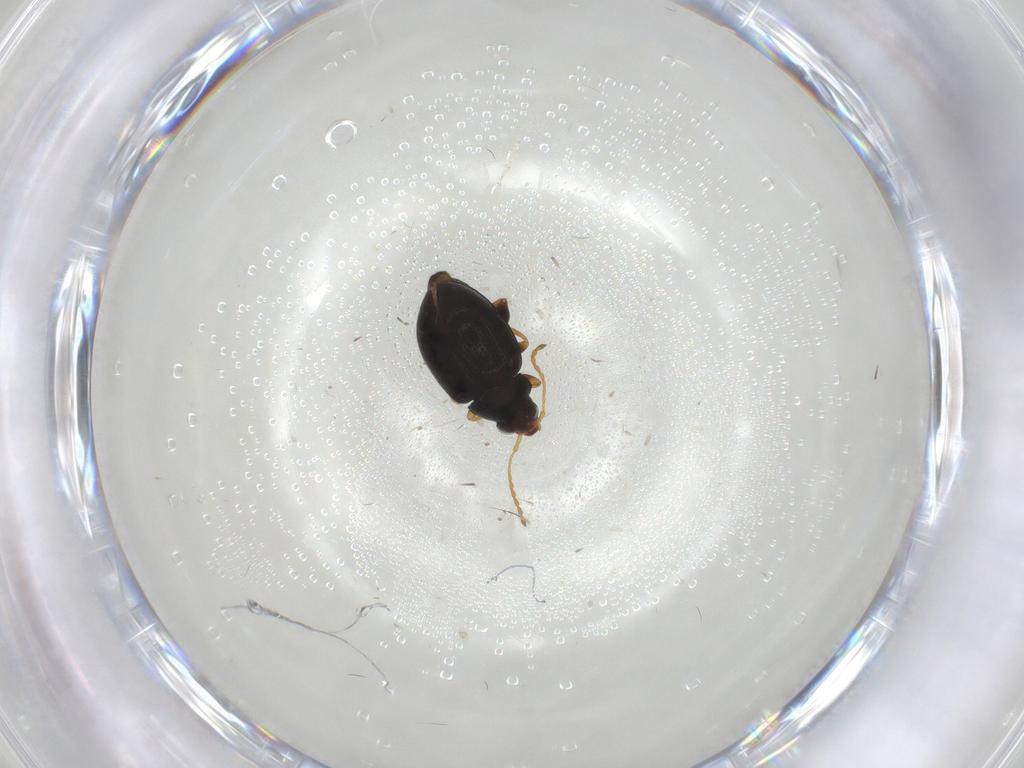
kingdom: Animalia
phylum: Arthropoda
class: Insecta
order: Coleoptera
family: Chrysomelidae
